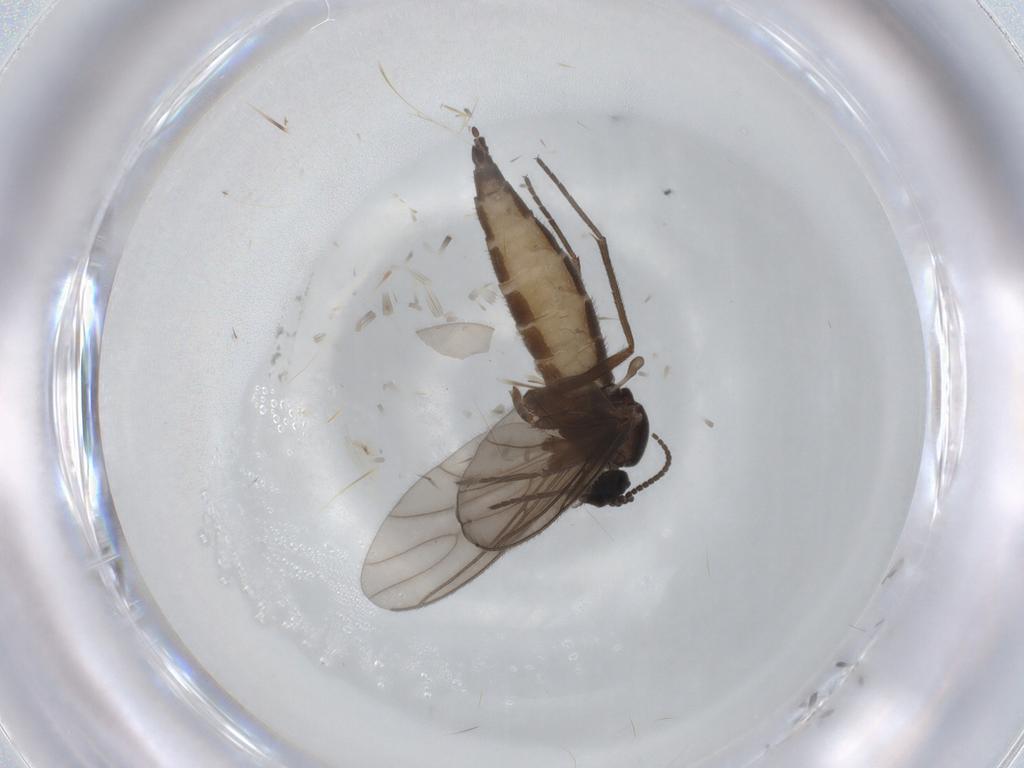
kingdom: Animalia
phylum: Arthropoda
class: Insecta
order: Diptera
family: Sciaridae
